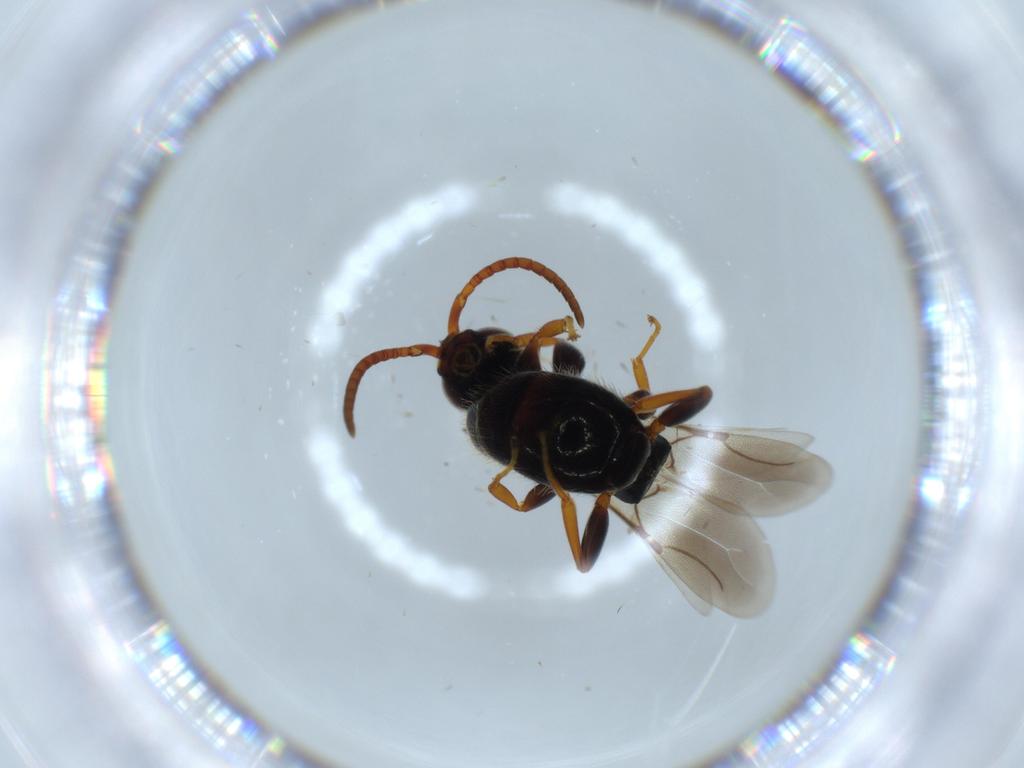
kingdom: Animalia
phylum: Arthropoda
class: Insecta
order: Hymenoptera
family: Bethylidae
